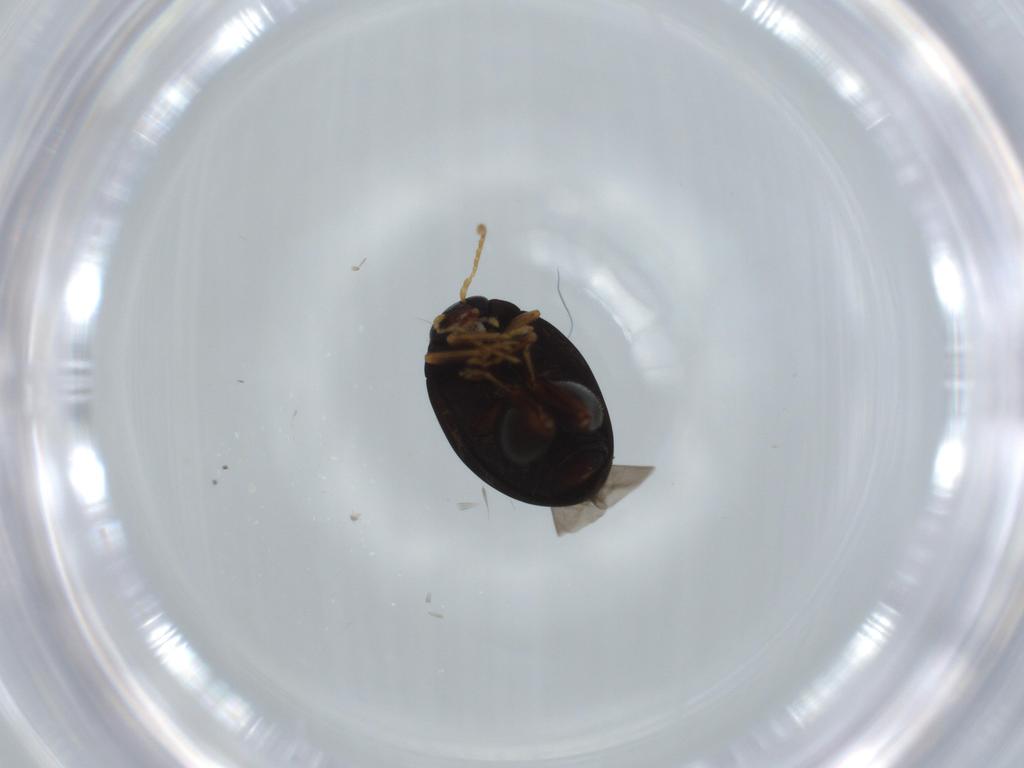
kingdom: Animalia
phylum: Arthropoda
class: Insecta
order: Coleoptera
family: Chrysomelidae
